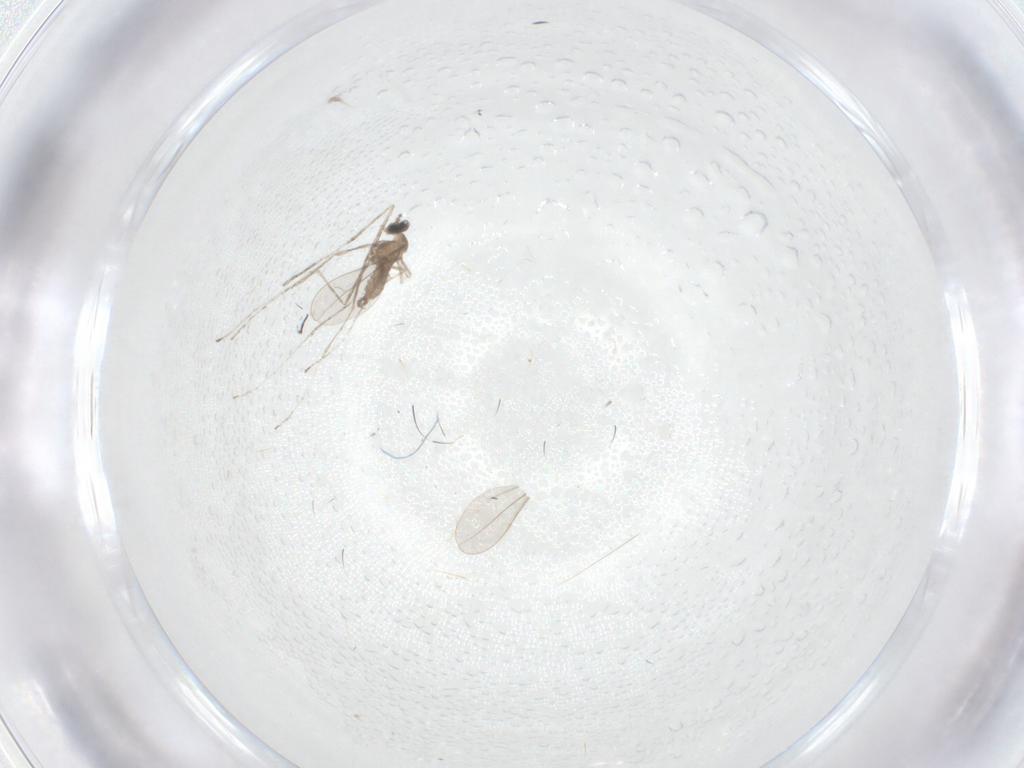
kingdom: Animalia
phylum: Arthropoda
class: Insecta
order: Diptera
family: Cecidomyiidae
